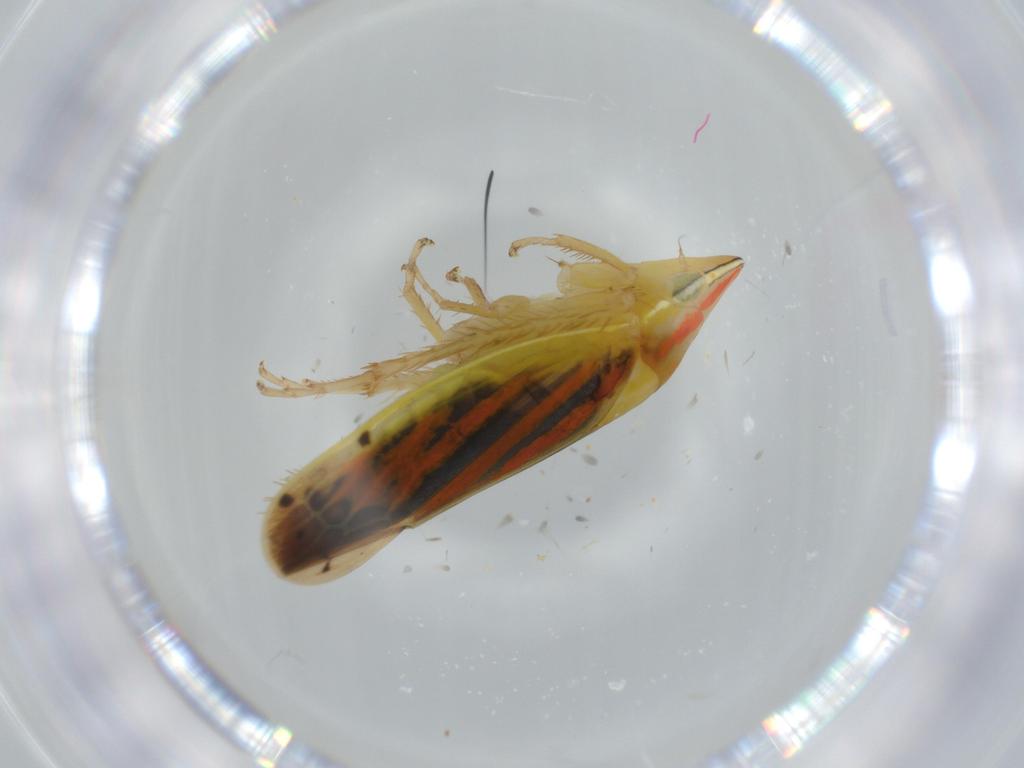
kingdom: Animalia
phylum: Arthropoda
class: Insecta
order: Hemiptera
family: Cicadellidae
